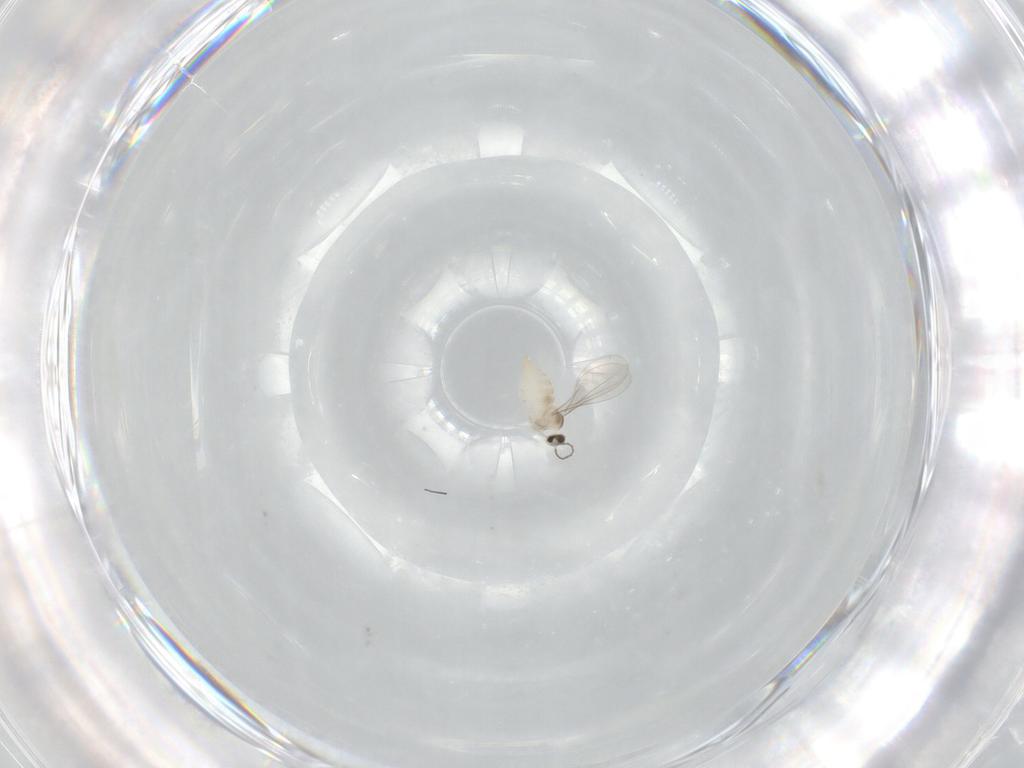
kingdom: Animalia
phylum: Arthropoda
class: Insecta
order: Diptera
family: Cecidomyiidae
